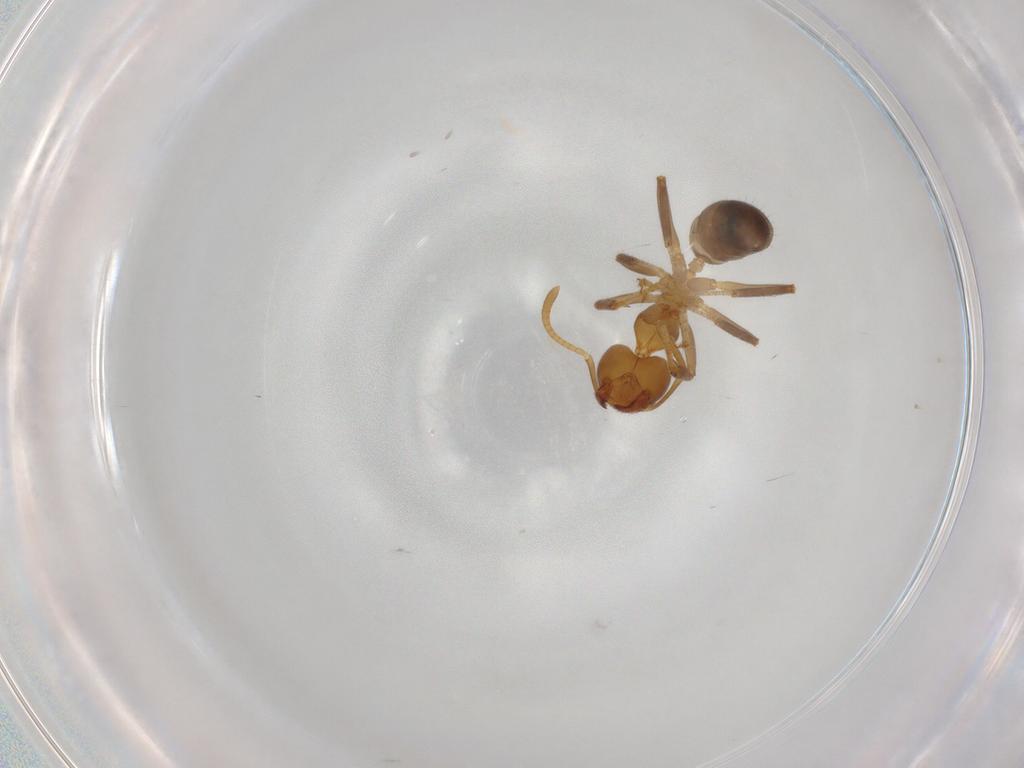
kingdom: Animalia
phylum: Arthropoda
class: Insecta
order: Hymenoptera
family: Formicidae
